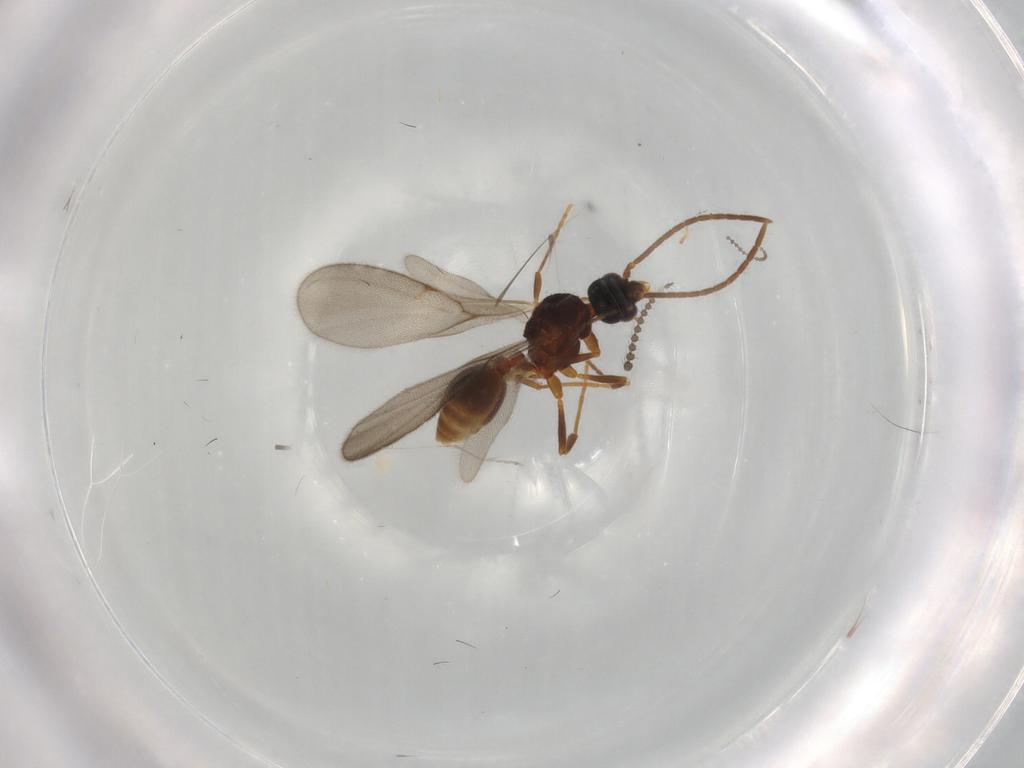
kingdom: Animalia
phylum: Arthropoda
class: Insecta
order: Hymenoptera
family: Formicidae
